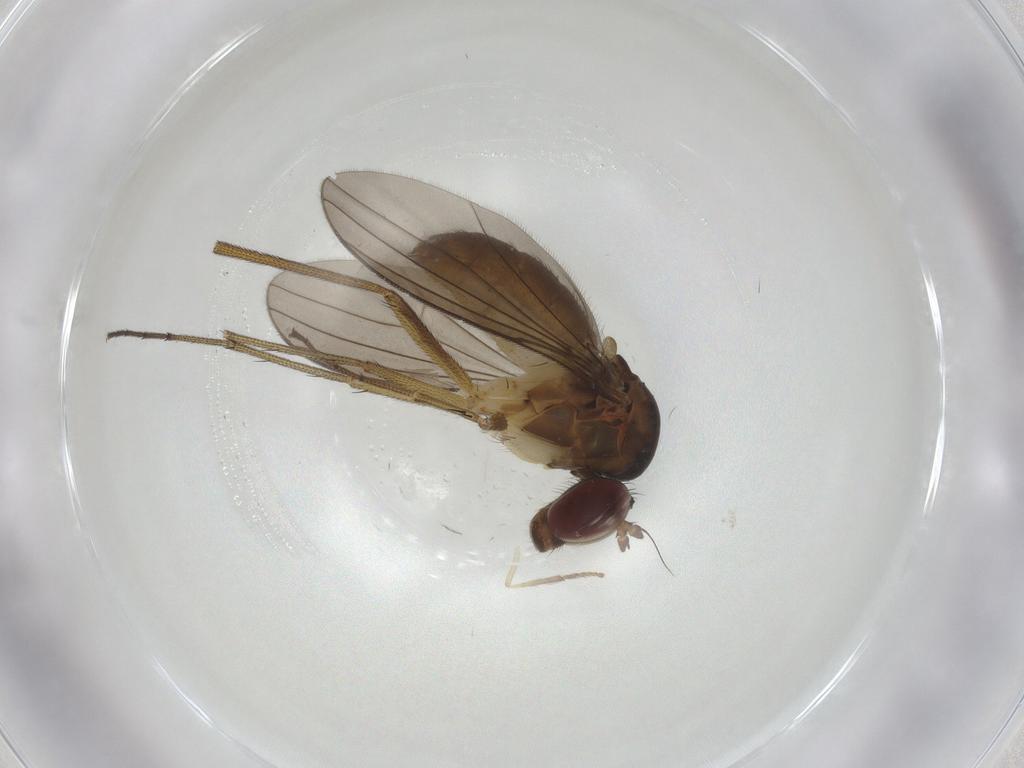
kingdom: Animalia
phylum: Arthropoda
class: Insecta
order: Diptera
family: Dolichopodidae
